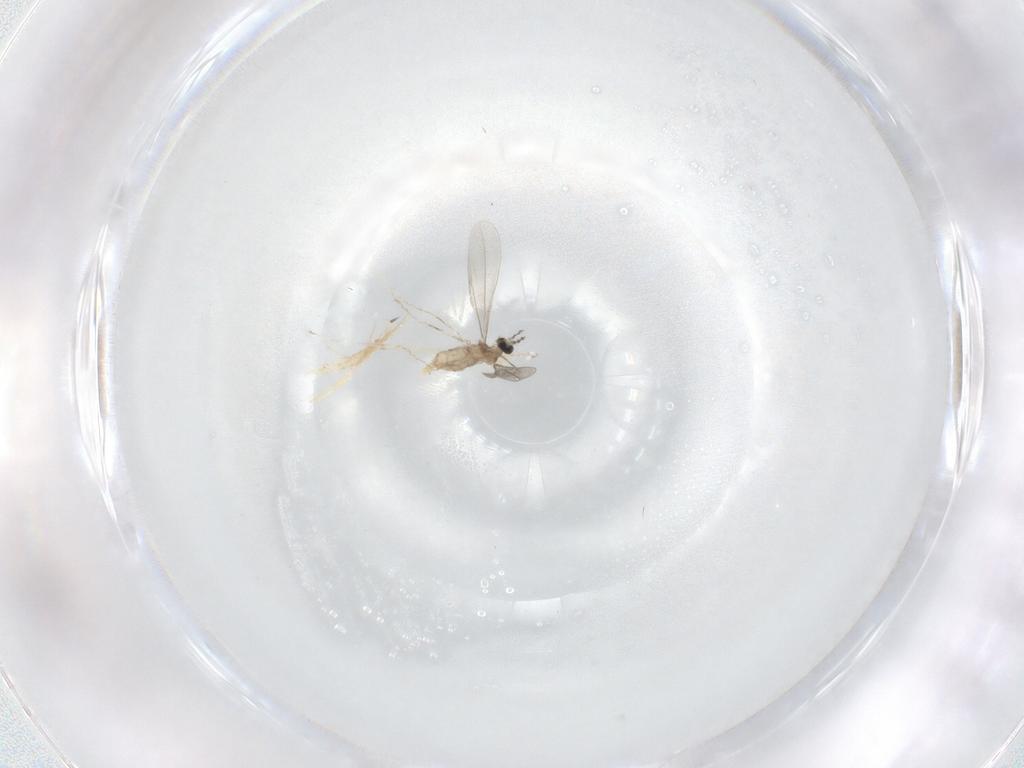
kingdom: Animalia
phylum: Arthropoda
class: Insecta
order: Diptera
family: Cecidomyiidae
